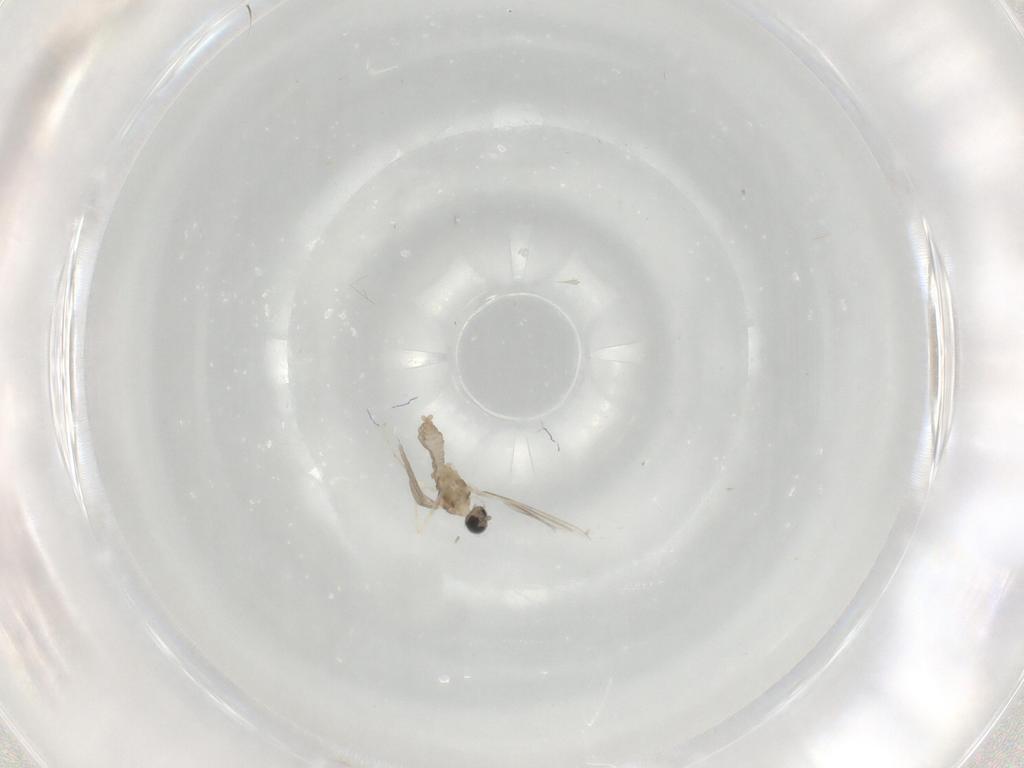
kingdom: Animalia
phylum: Arthropoda
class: Insecta
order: Diptera
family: Cecidomyiidae
